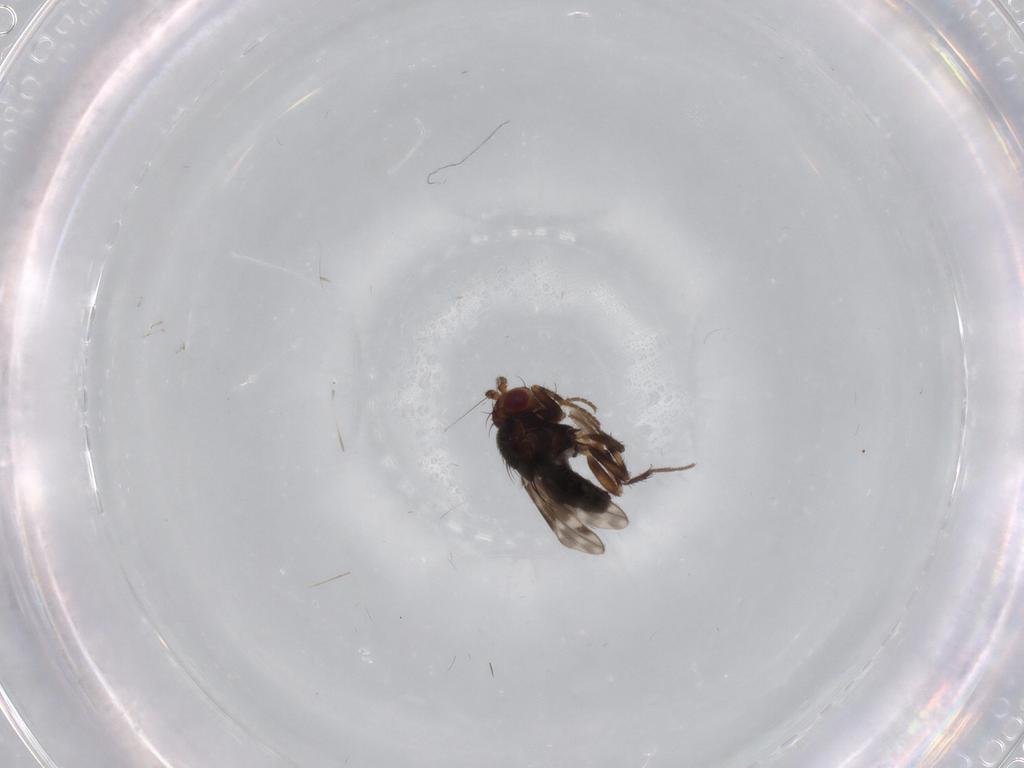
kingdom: Animalia
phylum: Arthropoda
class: Insecta
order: Diptera
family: Sphaeroceridae
